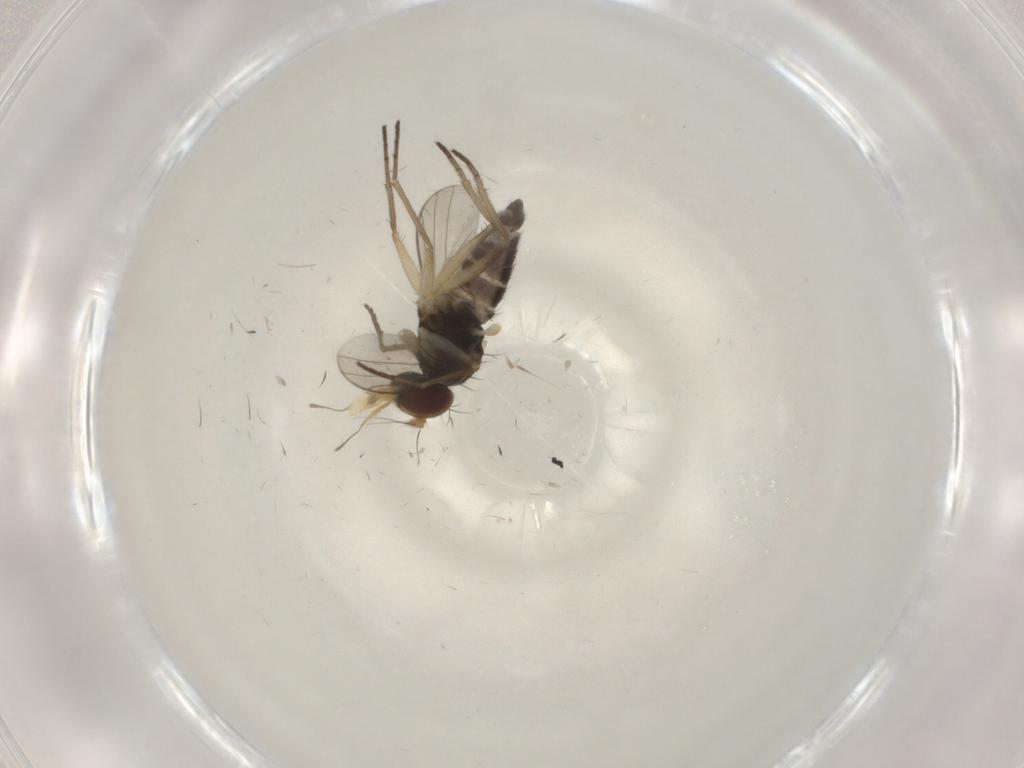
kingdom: Animalia
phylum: Arthropoda
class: Insecta
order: Diptera
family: Dolichopodidae
